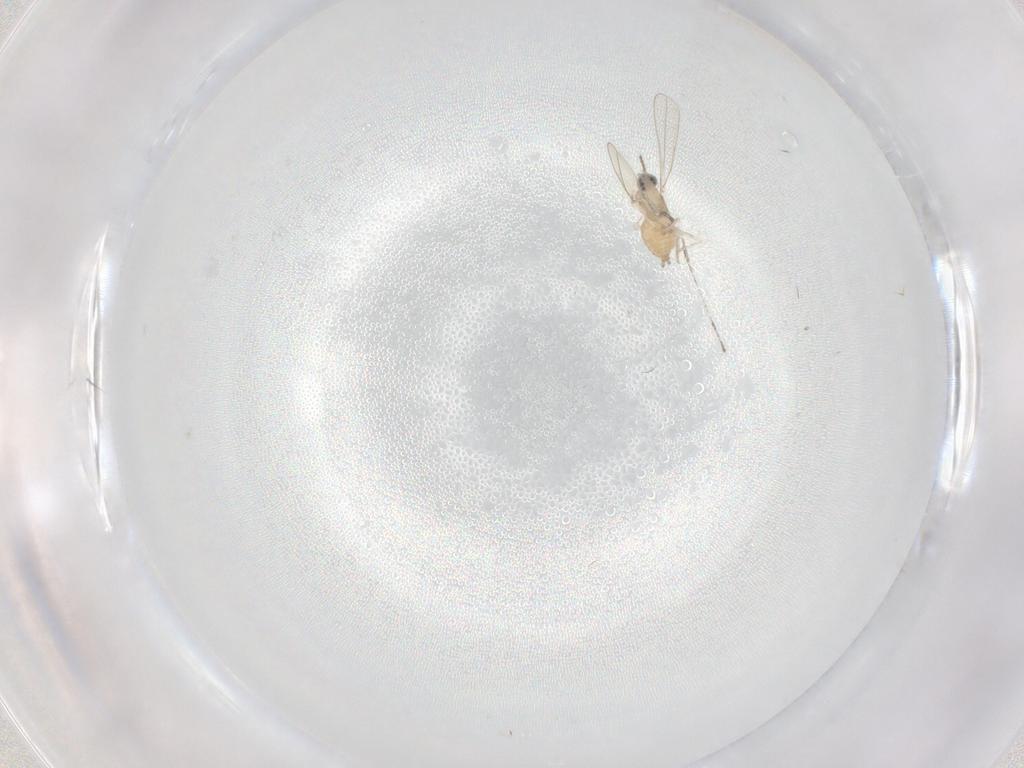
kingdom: Animalia
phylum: Arthropoda
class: Insecta
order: Diptera
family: Cecidomyiidae
